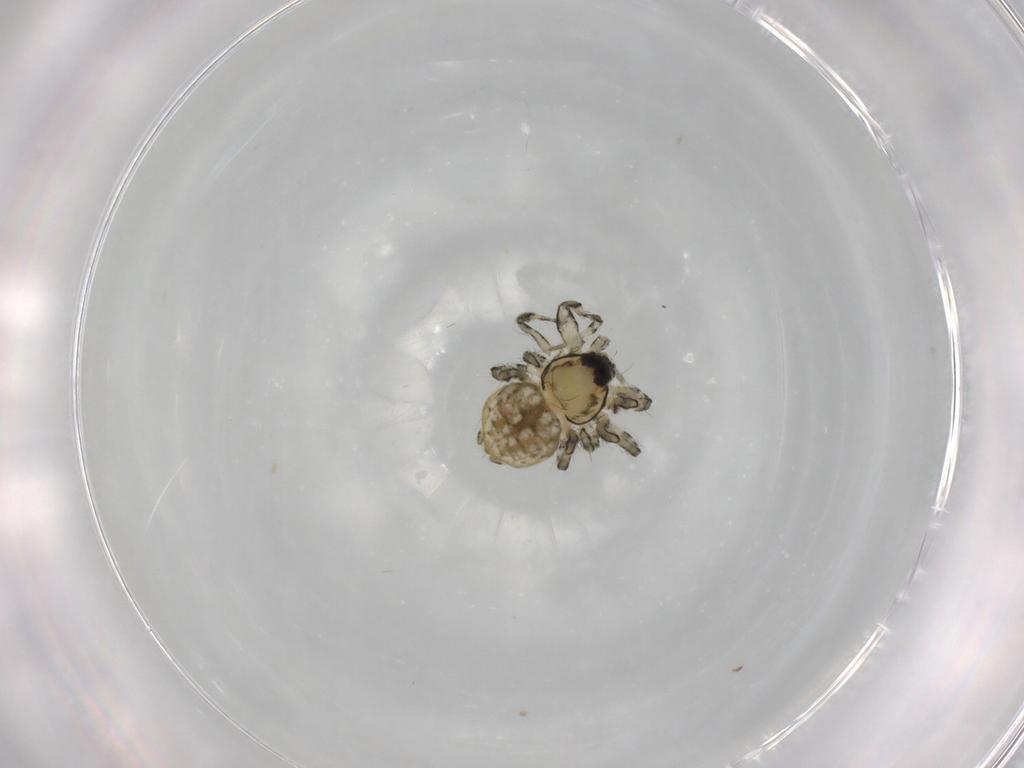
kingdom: Animalia
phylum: Arthropoda
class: Arachnida
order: Araneae
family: Hersiliidae
